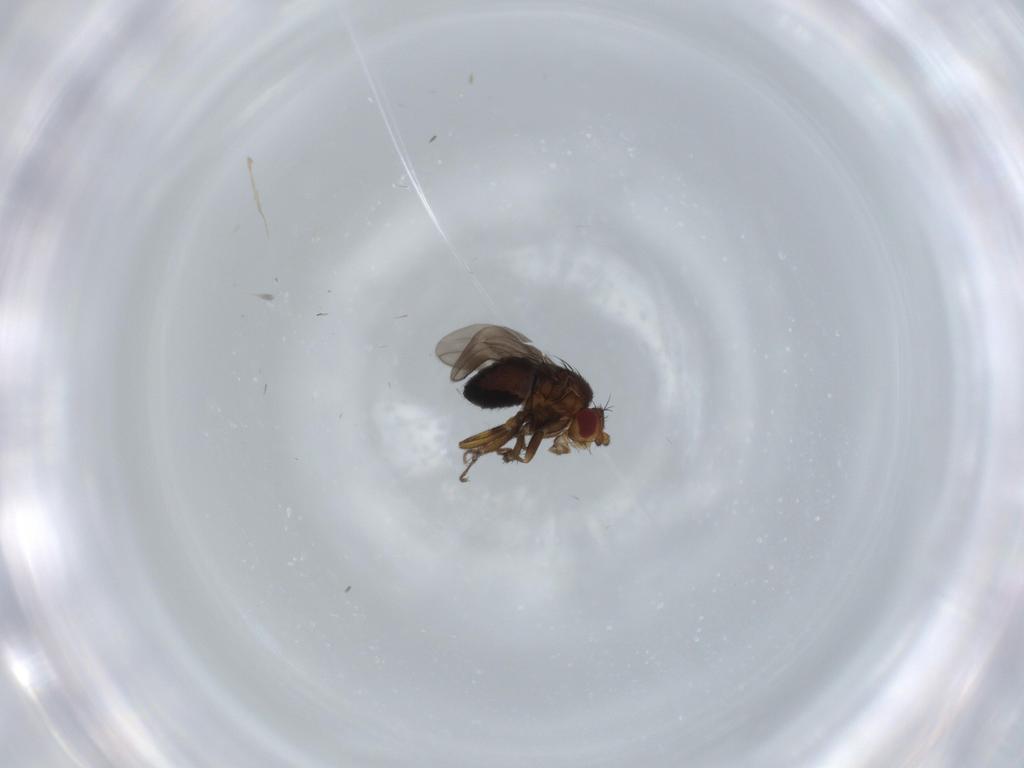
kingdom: Animalia
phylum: Arthropoda
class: Insecta
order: Diptera
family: Sphaeroceridae
